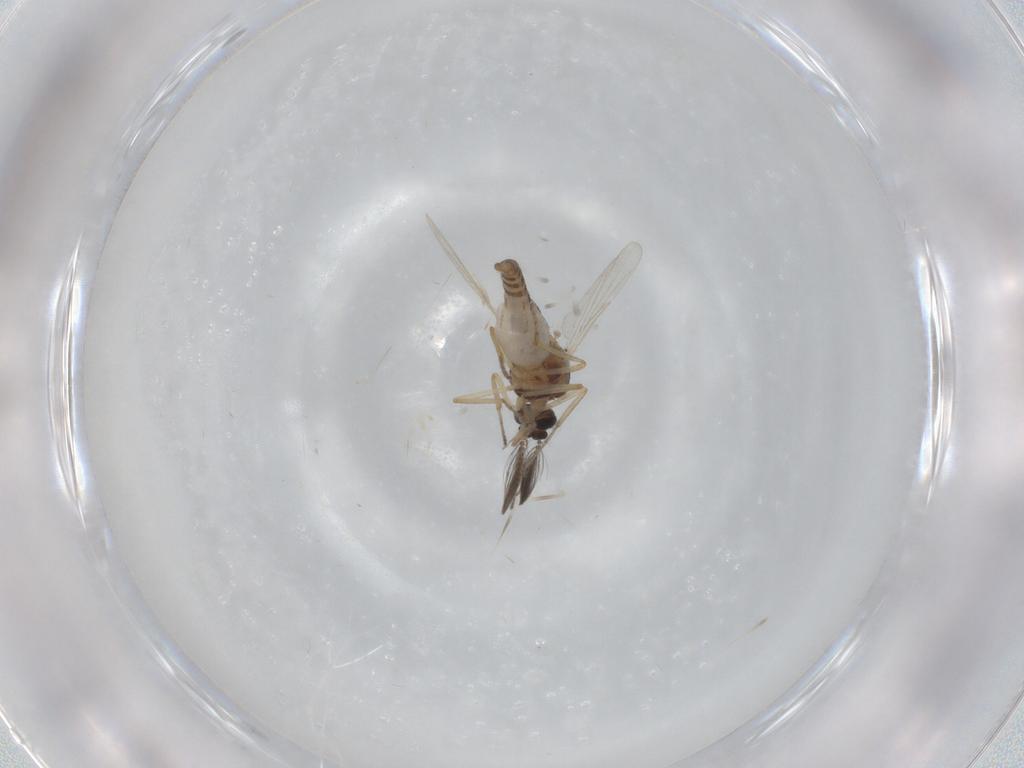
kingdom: Animalia
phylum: Arthropoda
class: Insecta
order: Diptera
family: Ceratopogonidae
